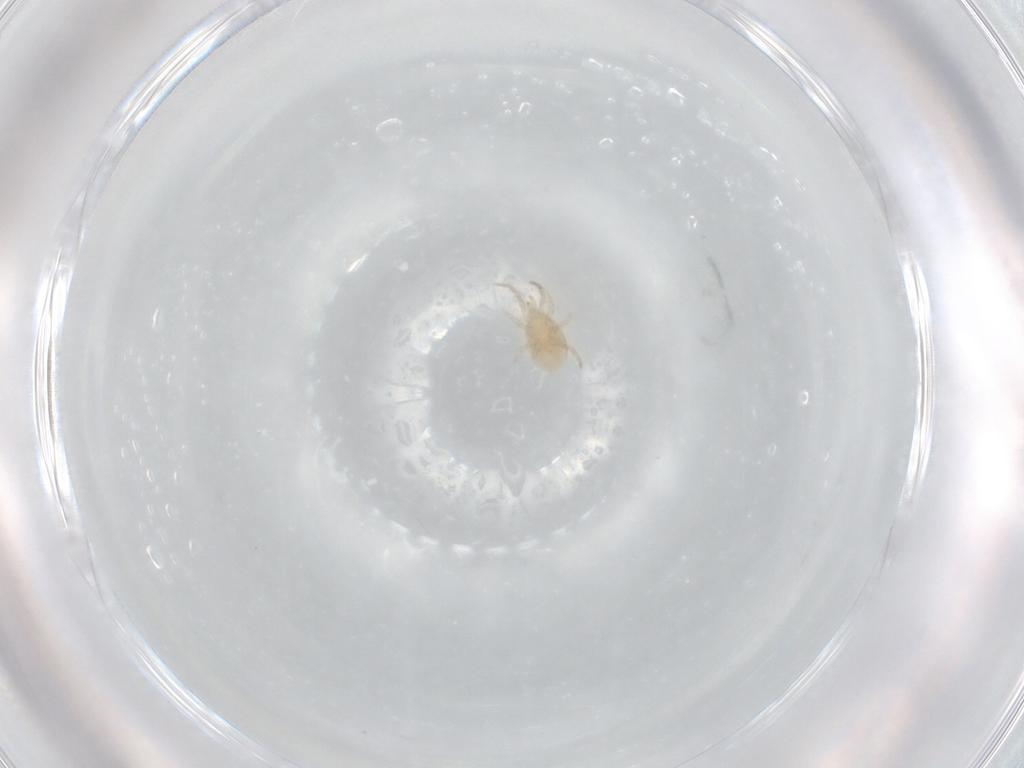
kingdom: Animalia
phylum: Arthropoda
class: Arachnida
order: Mesostigmata
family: Ascidae
